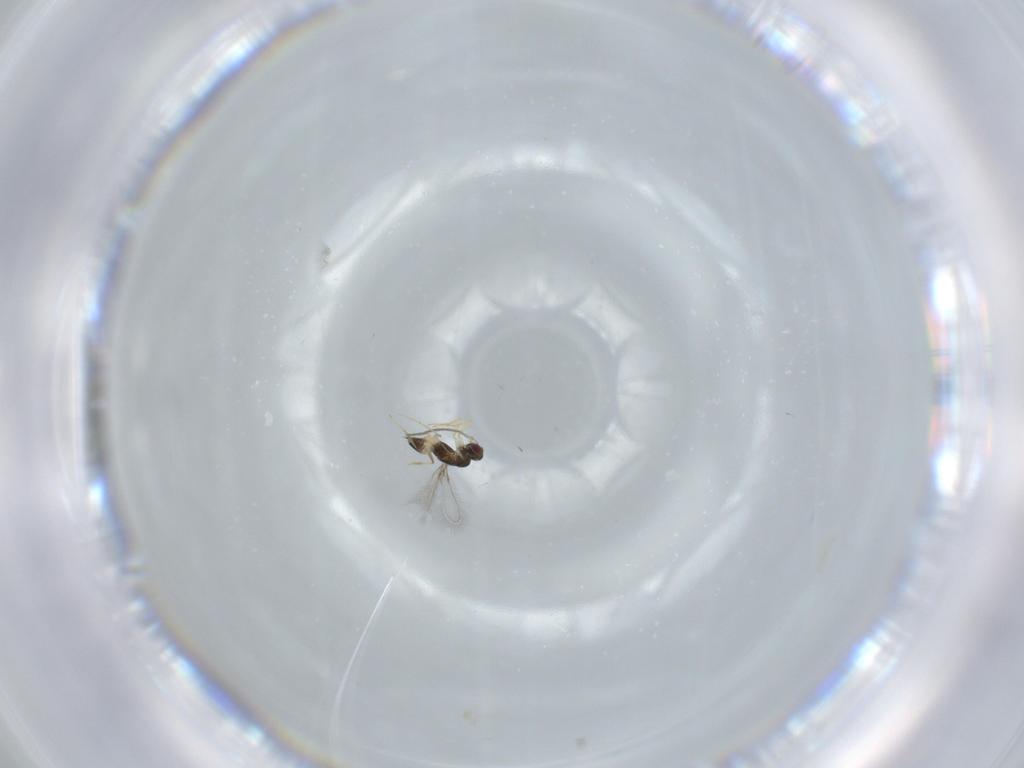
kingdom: Animalia
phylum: Arthropoda
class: Insecta
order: Hymenoptera
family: Mymaridae
